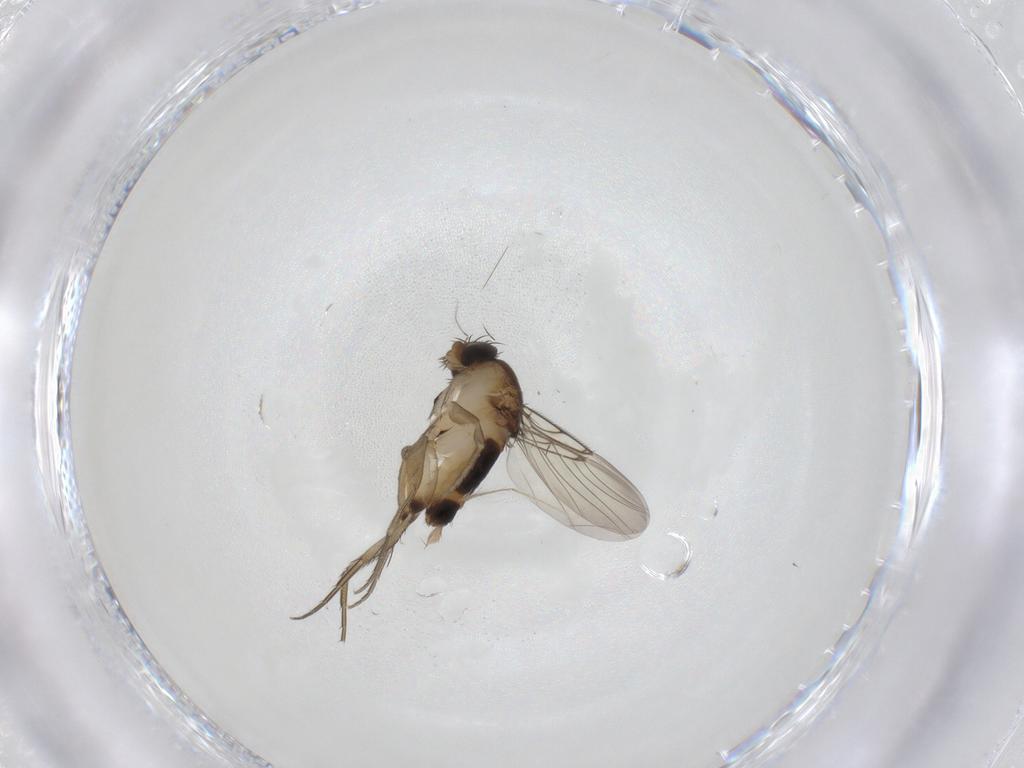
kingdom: Animalia
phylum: Arthropoda
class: Insecta
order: Diptera
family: Phoridae
